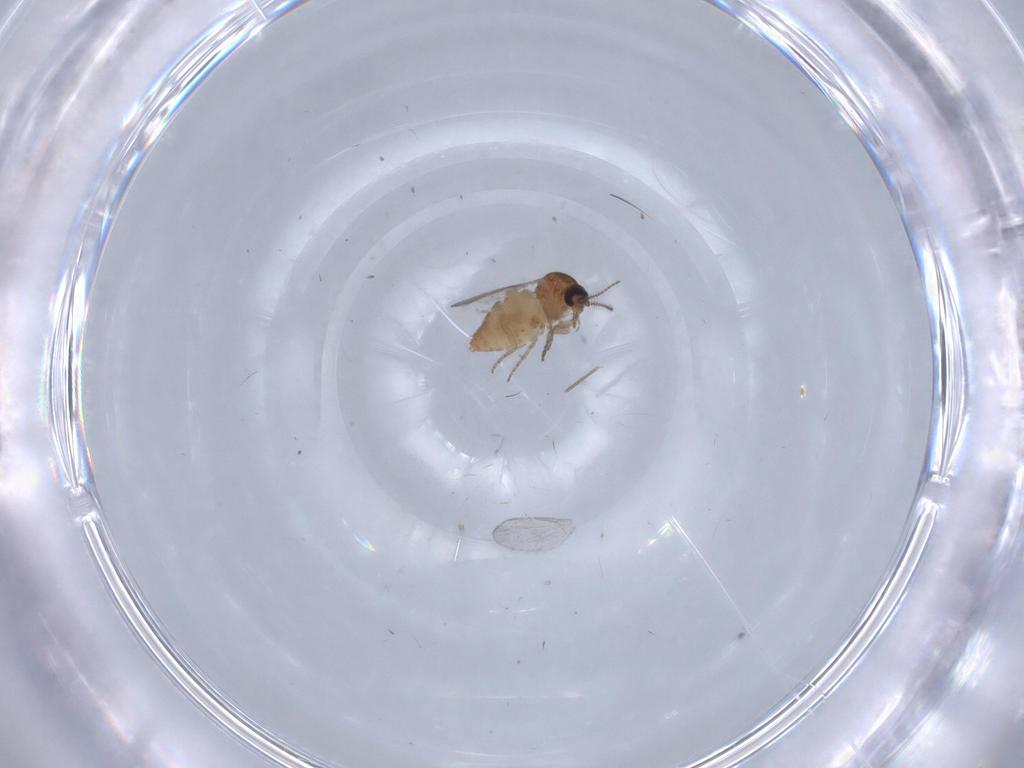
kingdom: Animalia
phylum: Arthropoda
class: Insecta
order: Diptera
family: Ceratopogonidae
